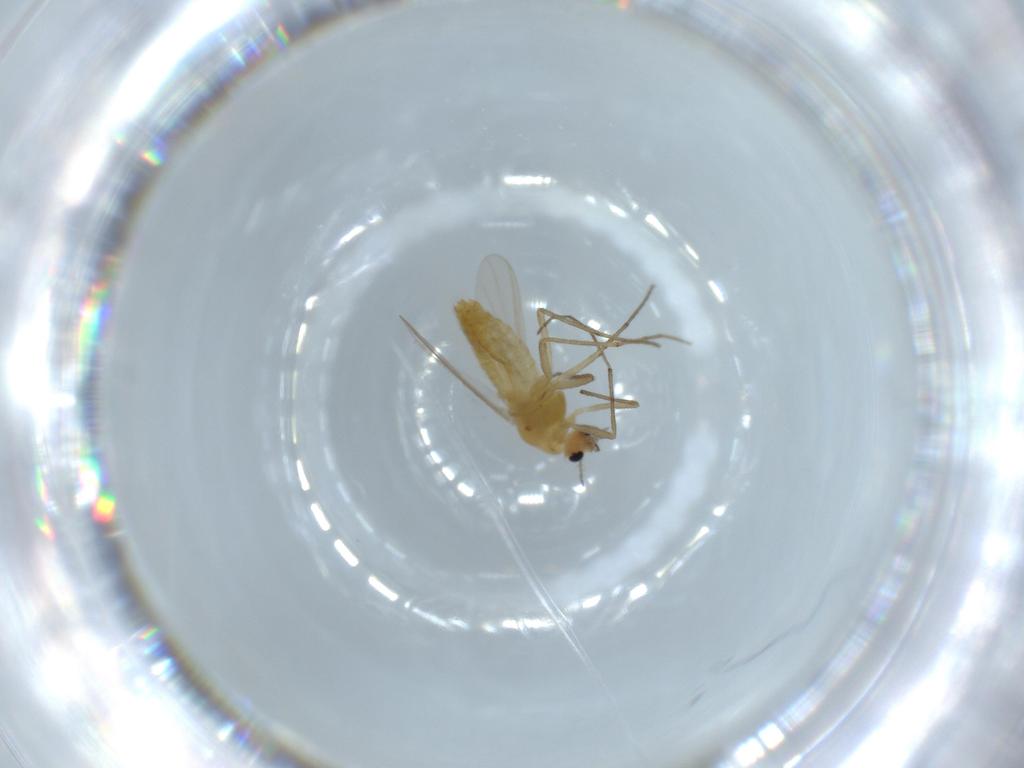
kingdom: Animalia
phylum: Arthropoda
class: Insecta
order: Diptera
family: Chironomidae
